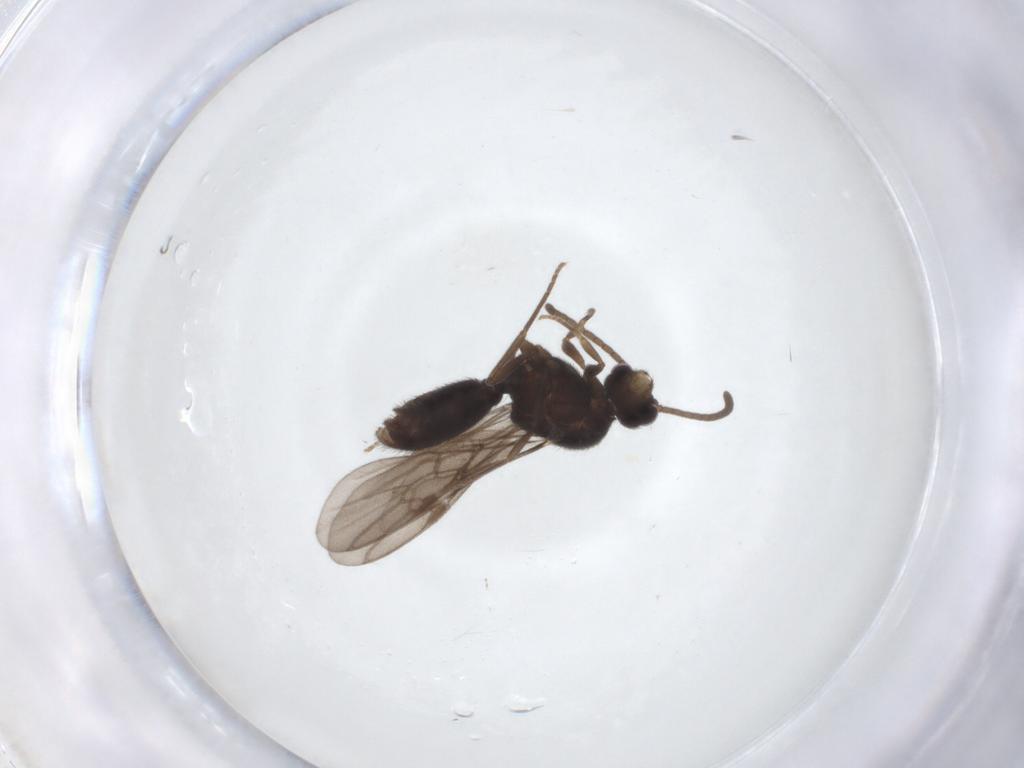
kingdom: Animalia
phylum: Arthropoda
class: Insecta
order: Hymenoptera
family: Formicidae
